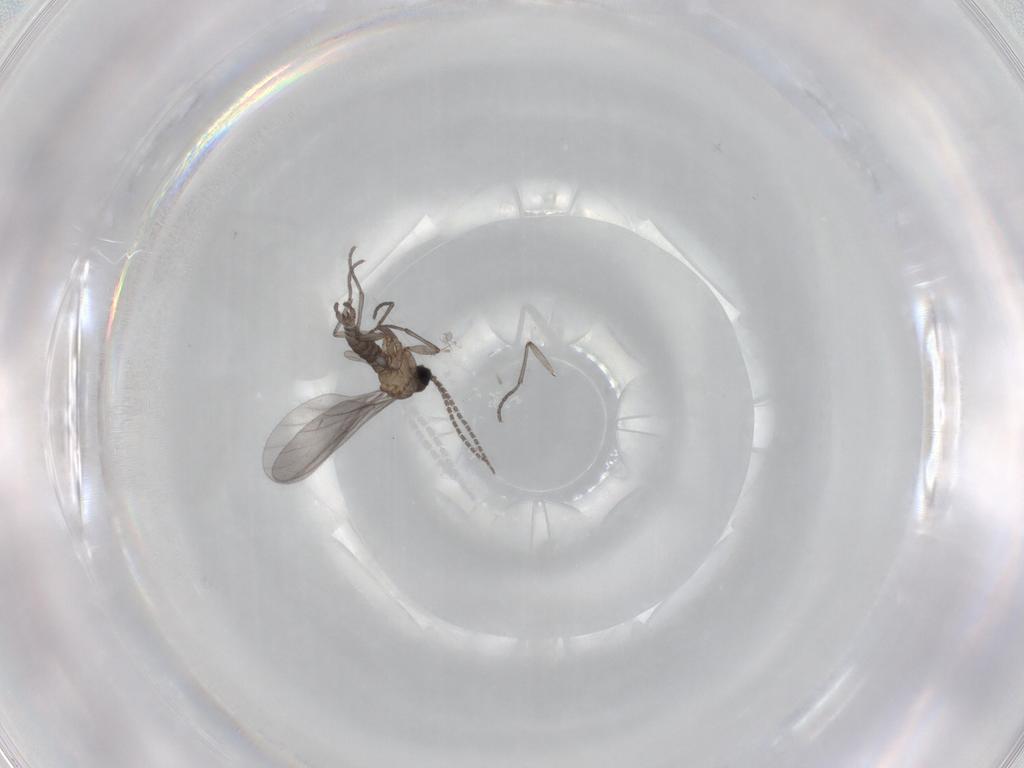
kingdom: Animalia
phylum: Arthropoda
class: Insecta
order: Diptera
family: Sciaridae
